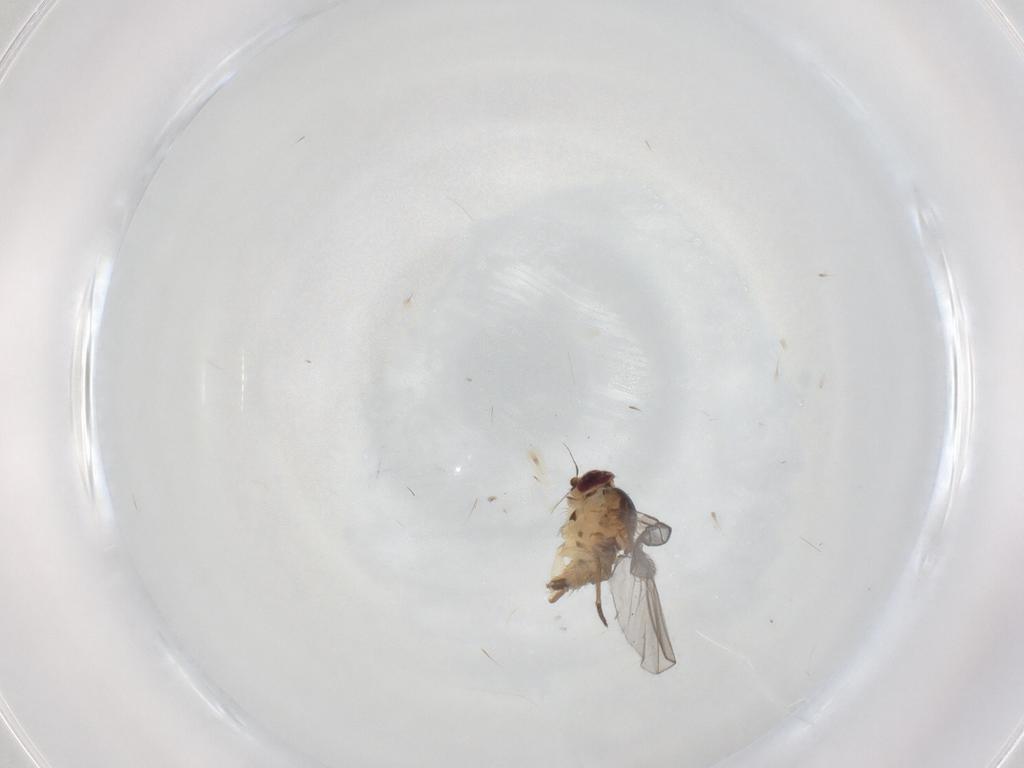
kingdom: Animalia
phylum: Arthropoda
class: Insecta
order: Diptera
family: Agromyzidae
